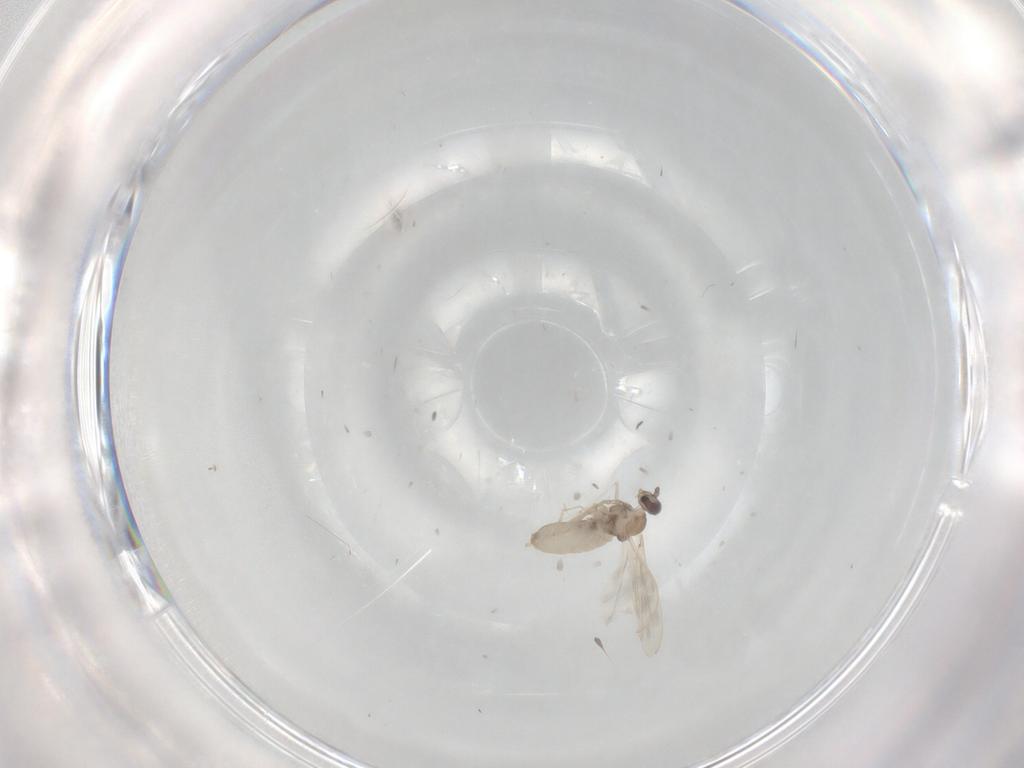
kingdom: Animalia
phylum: Arthropoda
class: Insecta
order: Diptera
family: Cecidomyiidae
